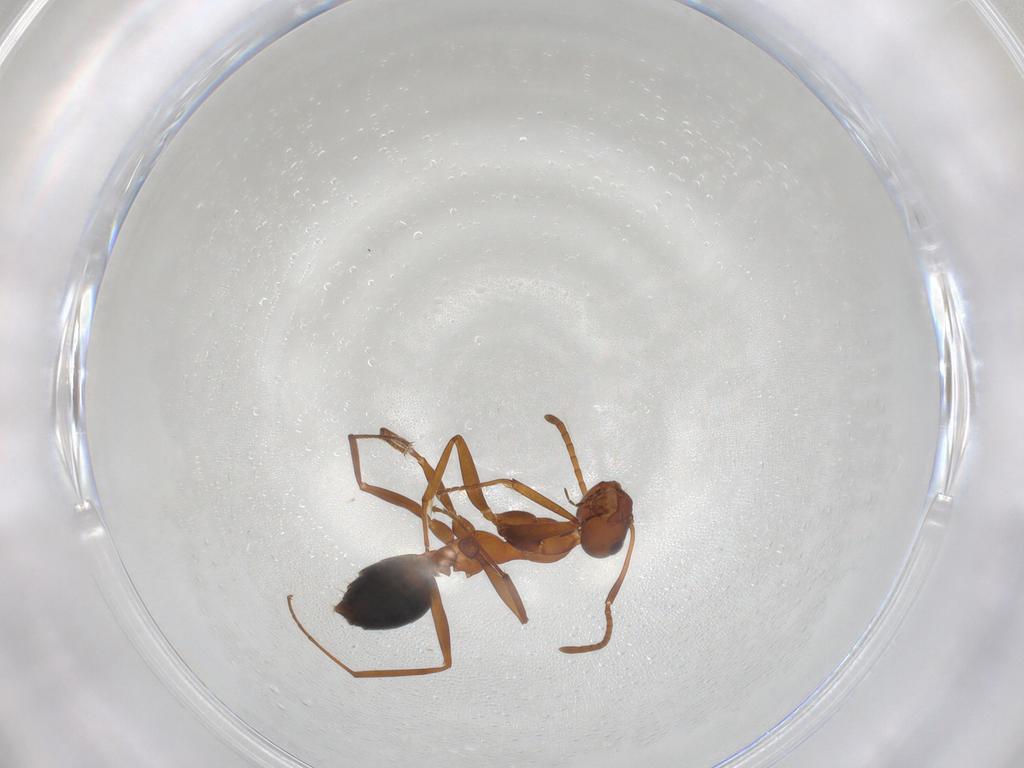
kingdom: Animalia
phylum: Arthropoda
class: Insecta
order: Hymenoptera
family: Formicidae
